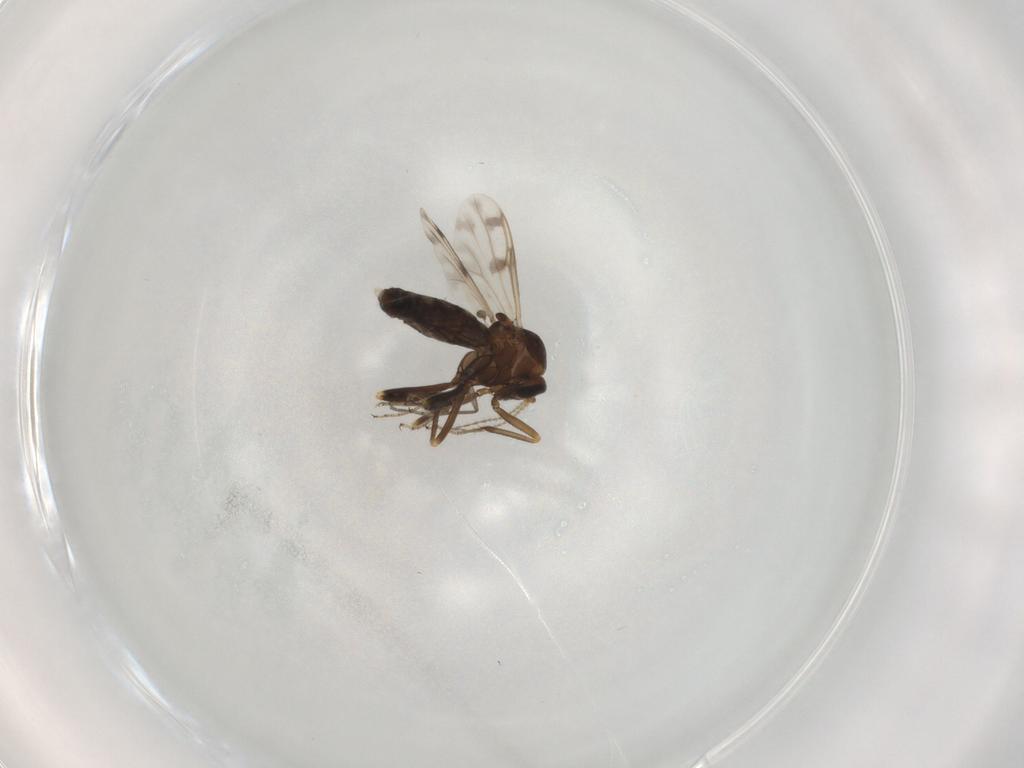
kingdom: Animalia
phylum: Arthropoda
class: Insecta
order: Diptera
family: Ceratopogonidae
